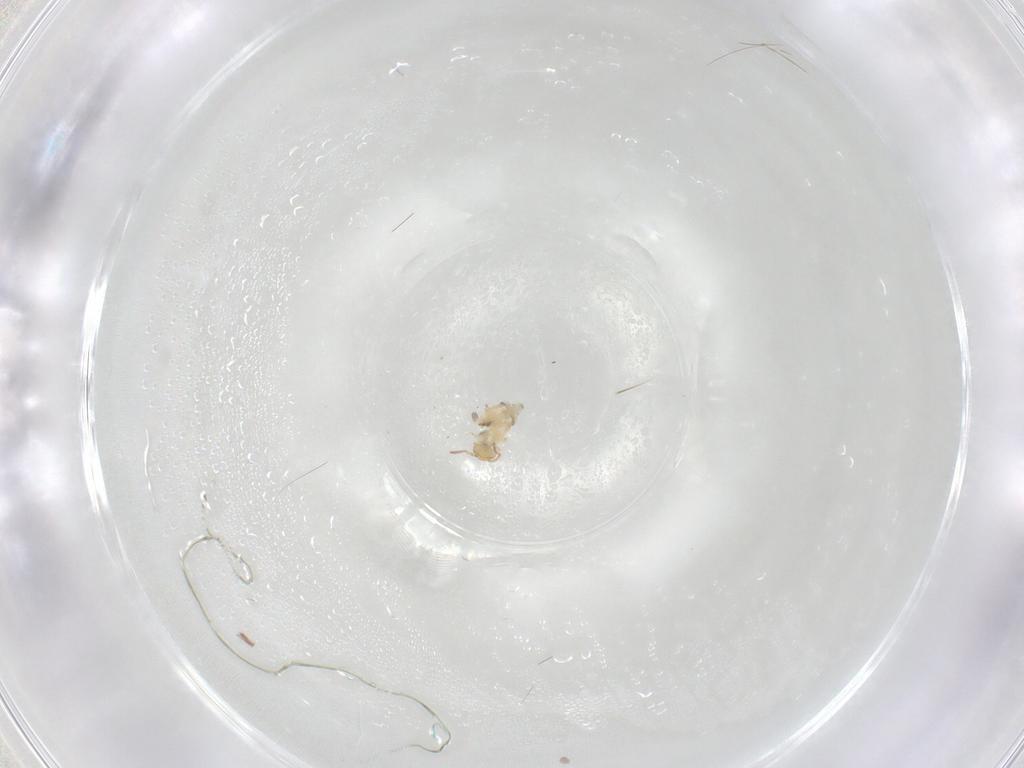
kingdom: Animalia
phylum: Arthropoda
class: Collembola
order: Symphypleona
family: Bourletiellidae
